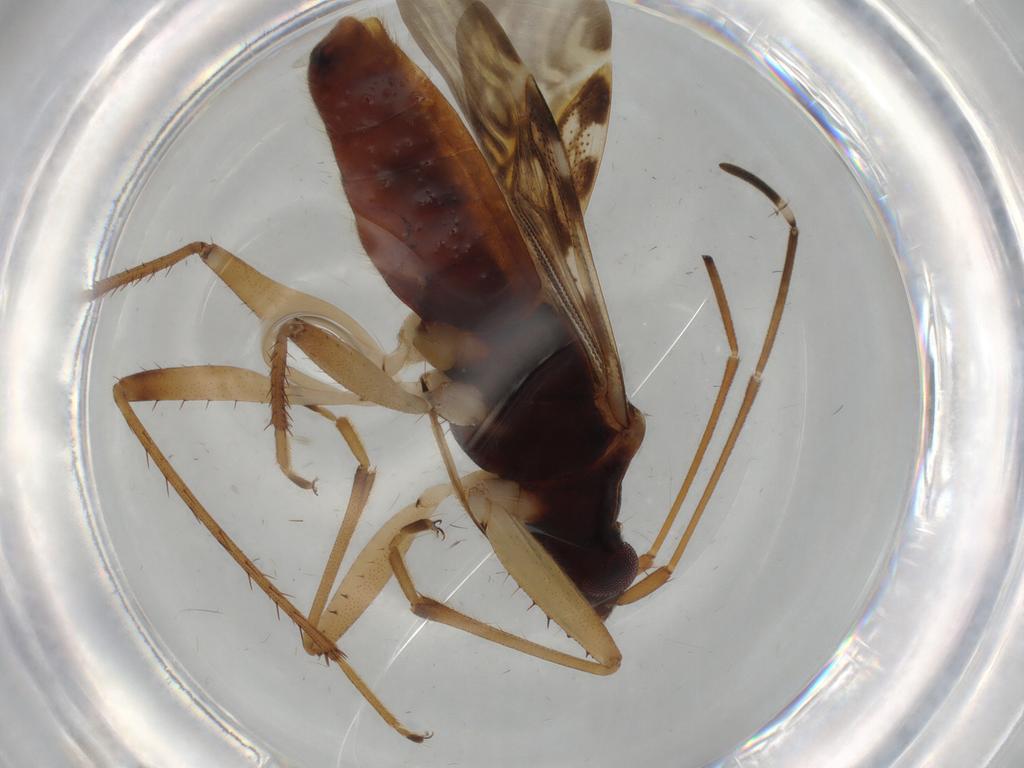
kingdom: Animalia
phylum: Arthropoda
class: Insecta
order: Hemiptera
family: Rhyparochromidae
